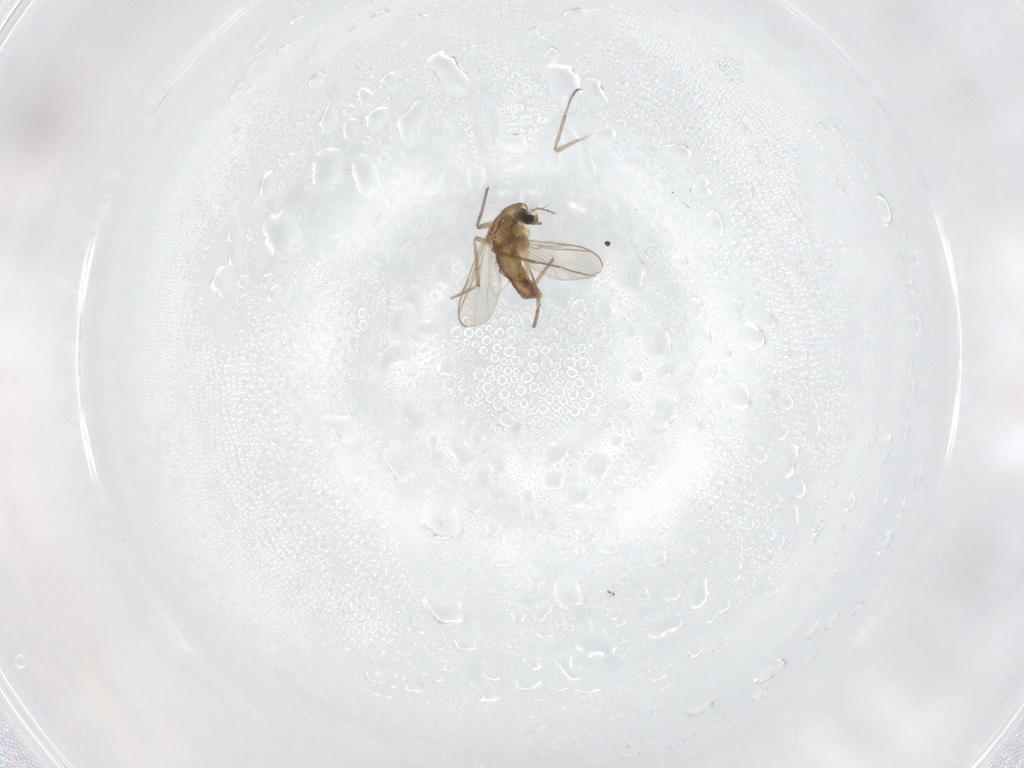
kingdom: Animalia
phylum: Arthropoda
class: Insecta
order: Diptera
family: Chironomidae
